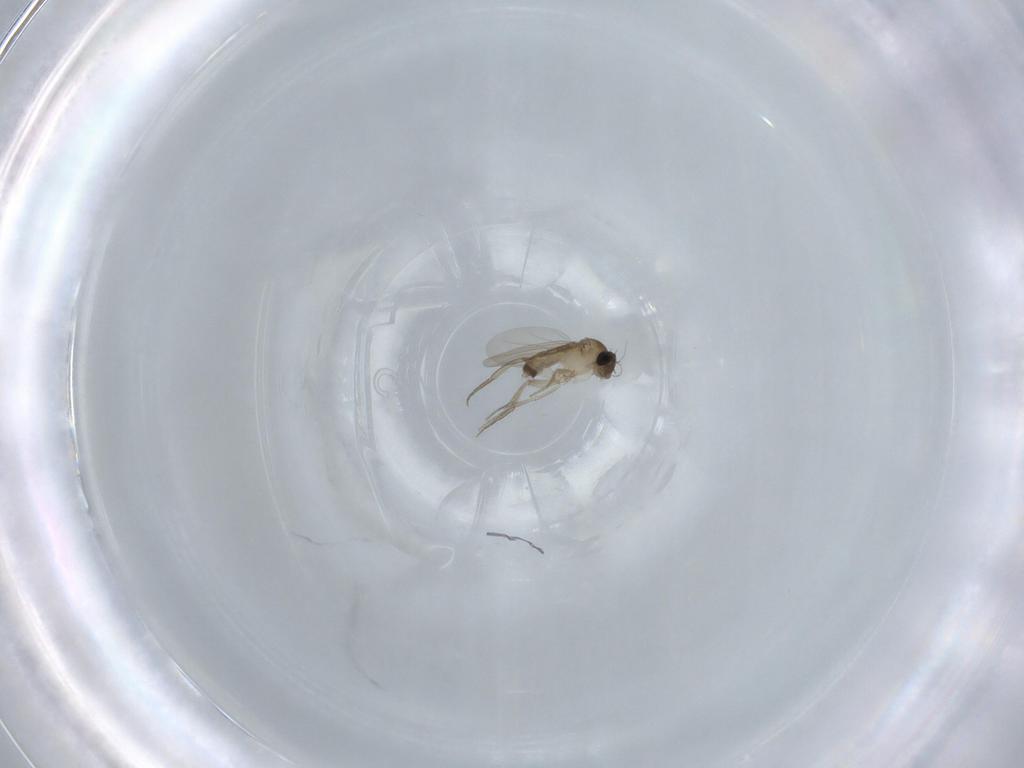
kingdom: Animalia
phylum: Arthropoda
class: Insecta
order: Diptera
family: Phoridae
